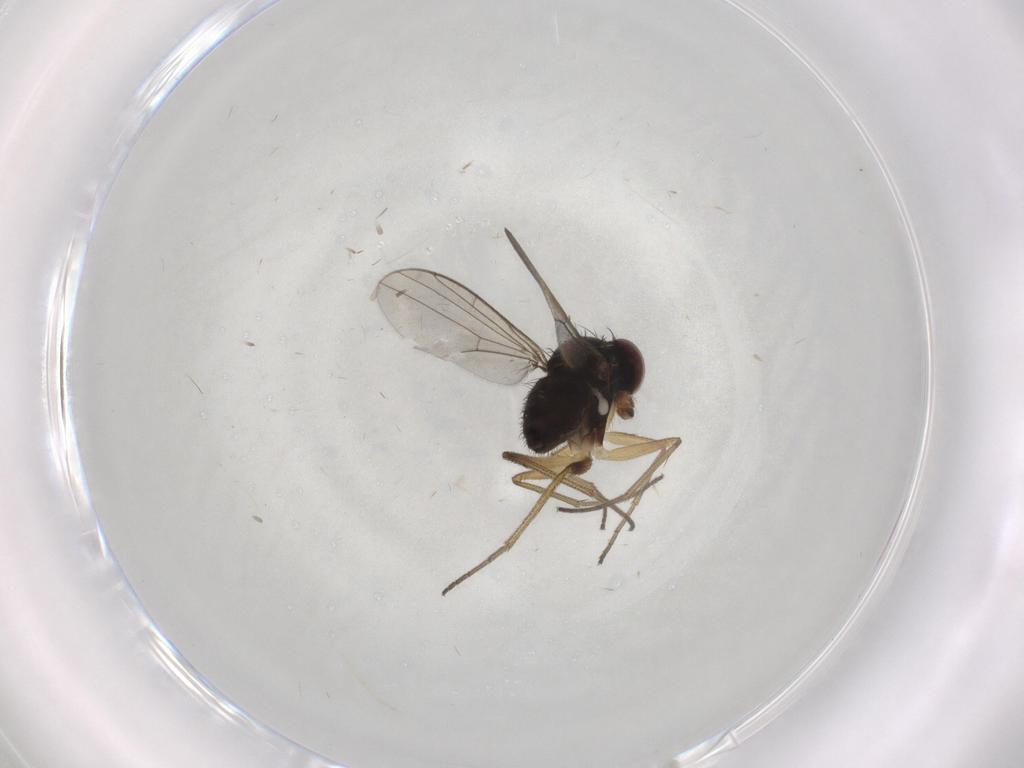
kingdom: Animalia
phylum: Arthropoda
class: Insecta
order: Diptera
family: Dolichopodidae
